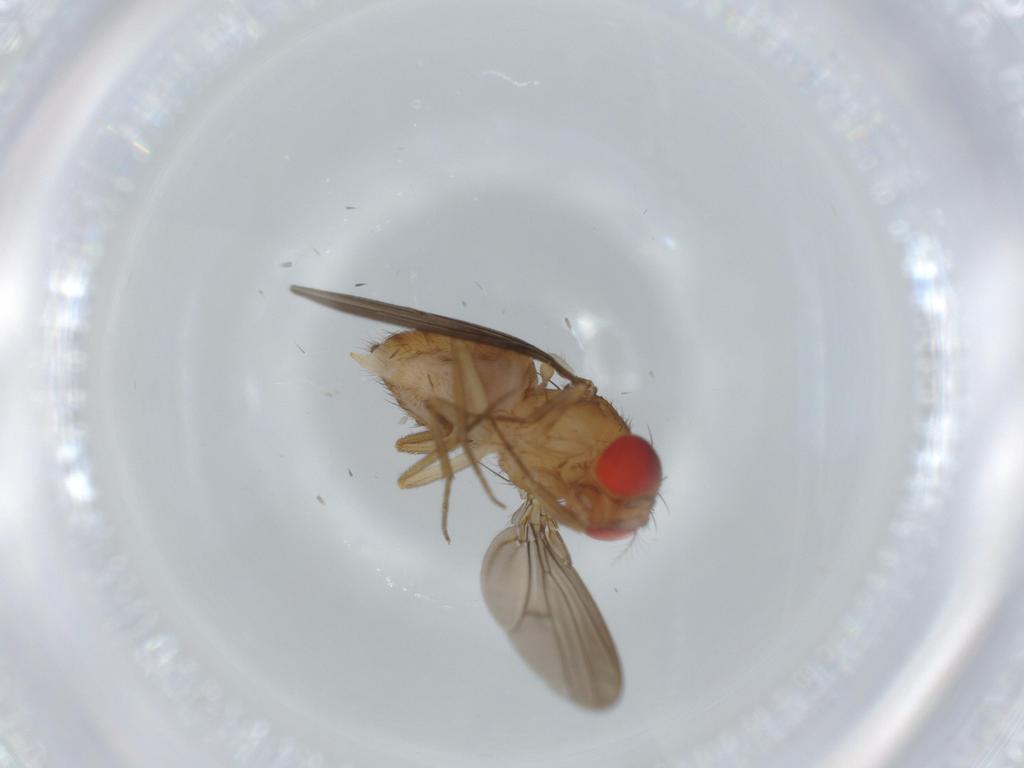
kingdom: Animalia
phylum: Arthropoda
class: Insecta
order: Diptera
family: Drosophilidae
